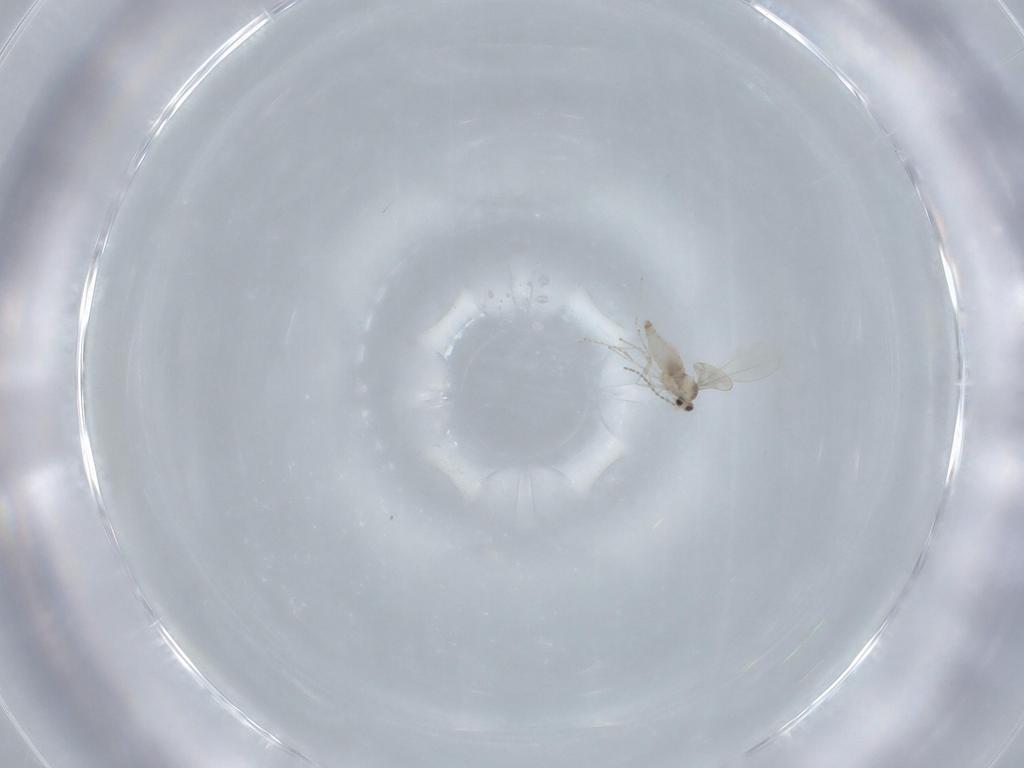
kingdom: Animalia
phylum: Arthropoda
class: Insecta
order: Diptera
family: Cecidomyiidae
